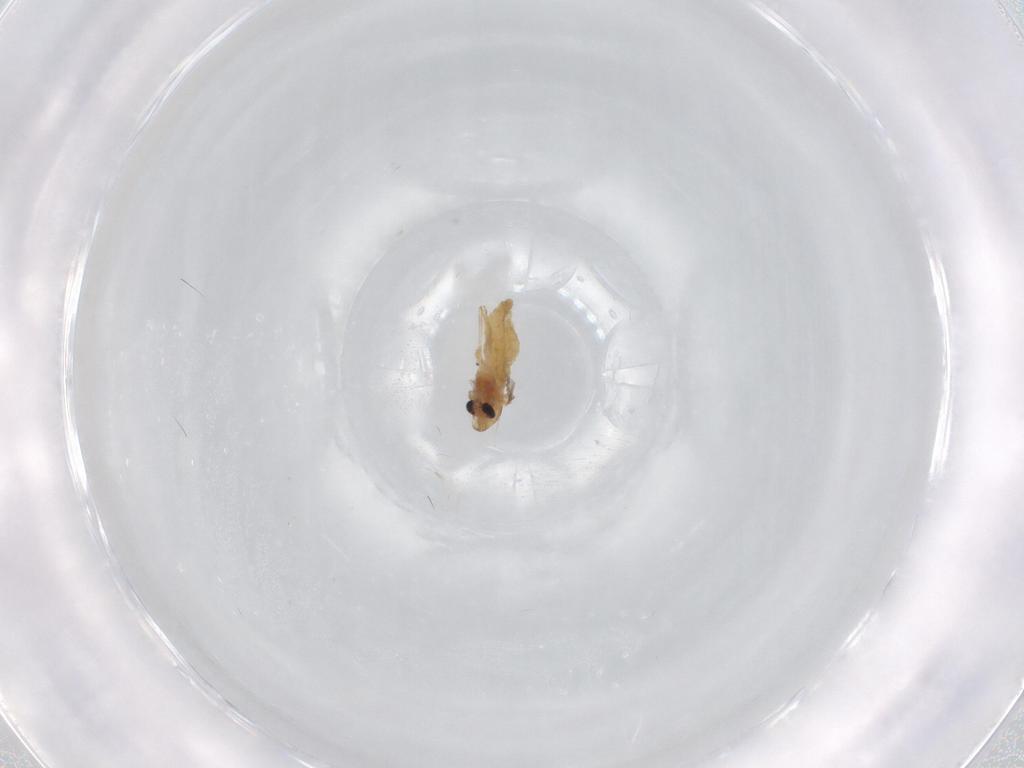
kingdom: Animalia
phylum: Arthropoda
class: Insecta
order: Diptera
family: Chironomidae
